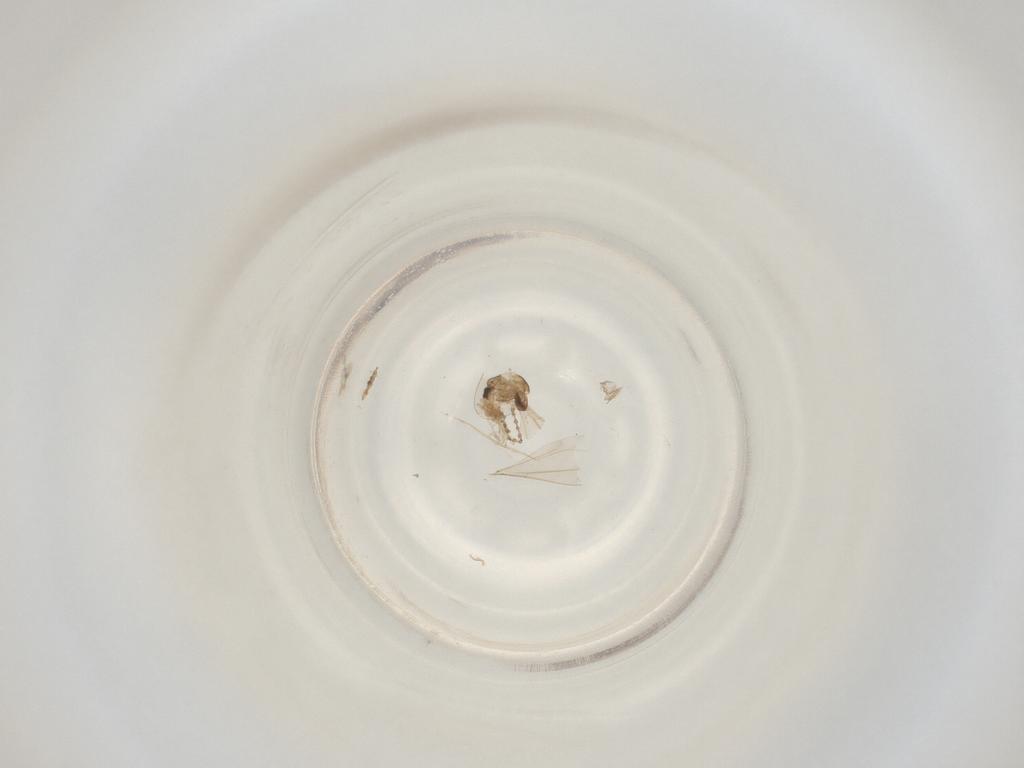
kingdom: Animalia
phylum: Arthropoda
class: Insecta
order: Diptera
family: Cecidomyiidae
